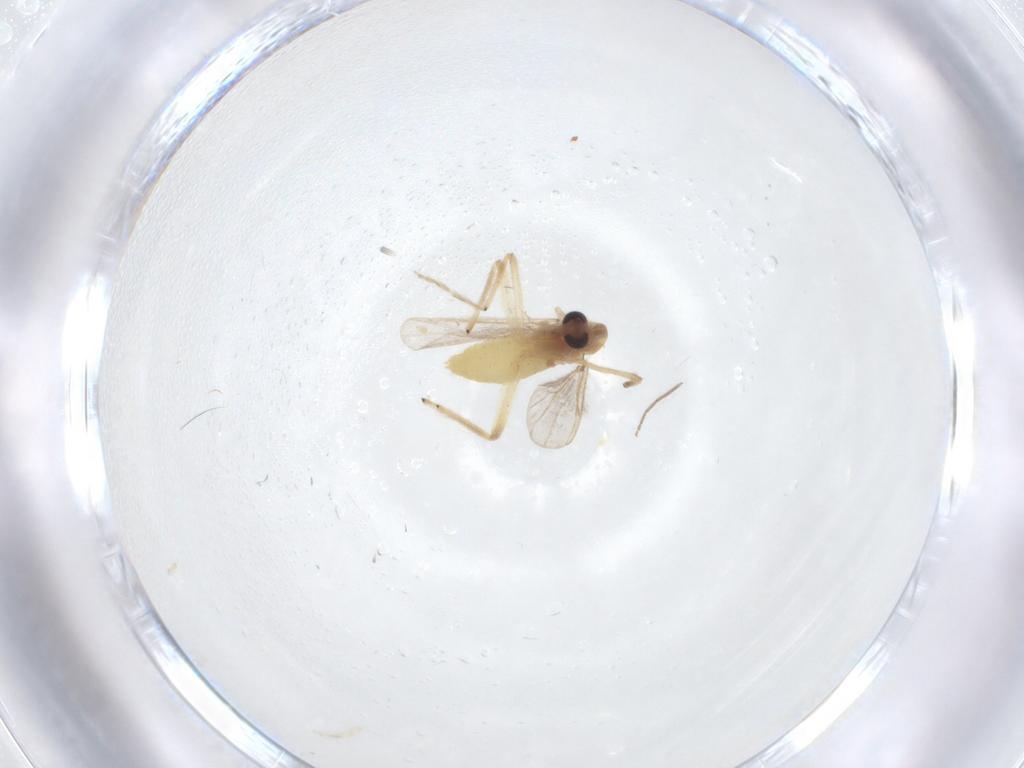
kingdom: Animalia
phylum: Arthropoda
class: Insecta
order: Diptera
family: Chironomidae
